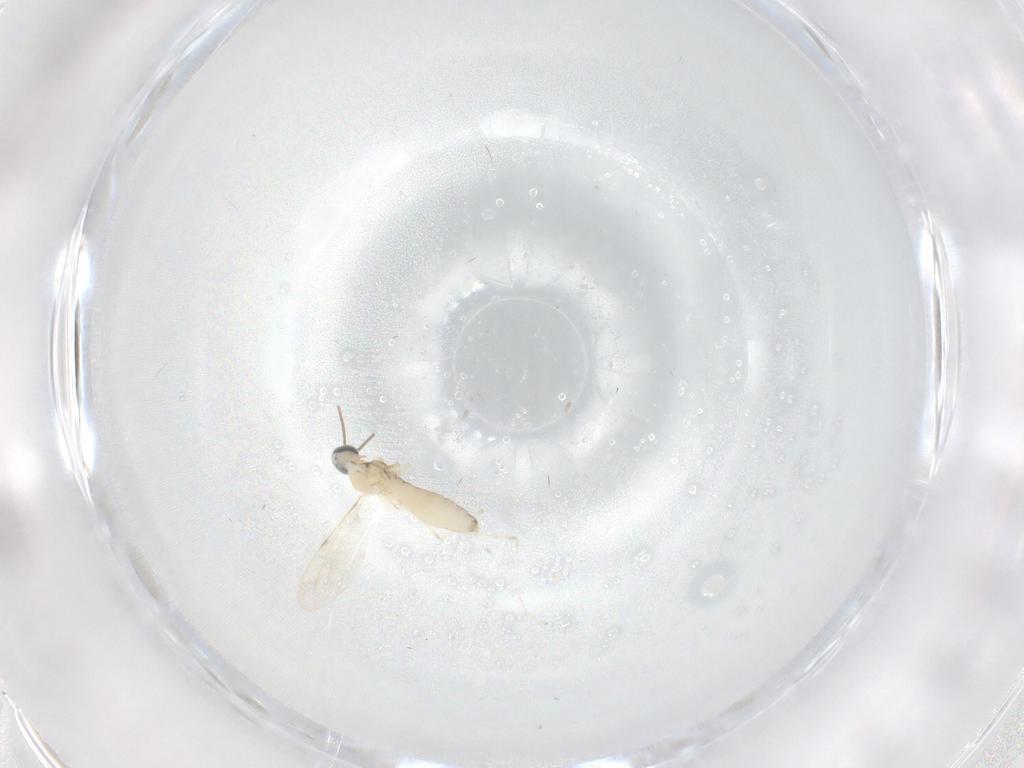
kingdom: Animalia
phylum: Arthropoda
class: Insecta
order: Diptera
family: Cecidomyiidae
